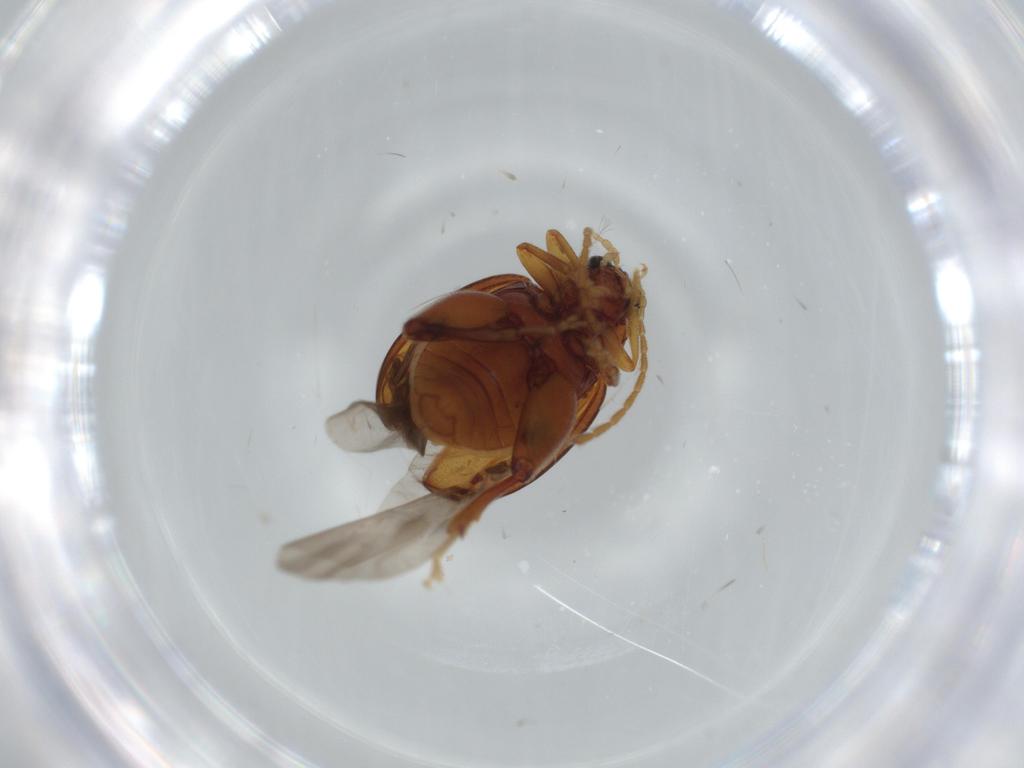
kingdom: Animalia
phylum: Arthropoda
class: Insecta
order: Coleoptera
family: Chrysomelidae
